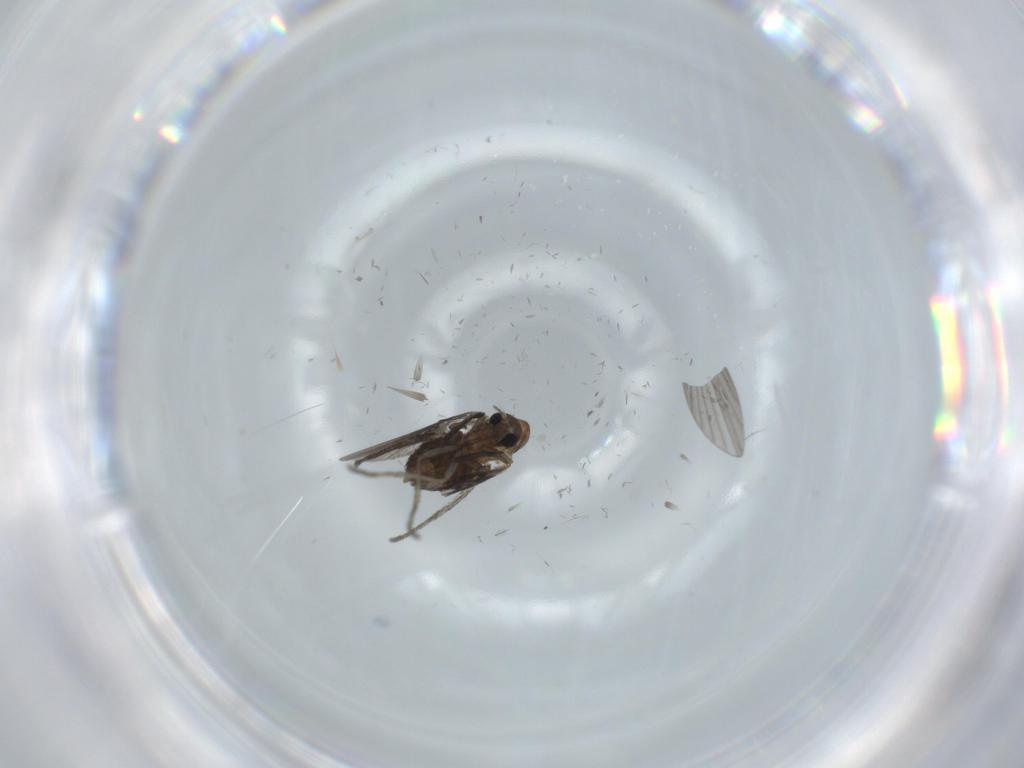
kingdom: Animalia
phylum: Arthropoda
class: Insecta
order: Diptera
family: Psychodidae
